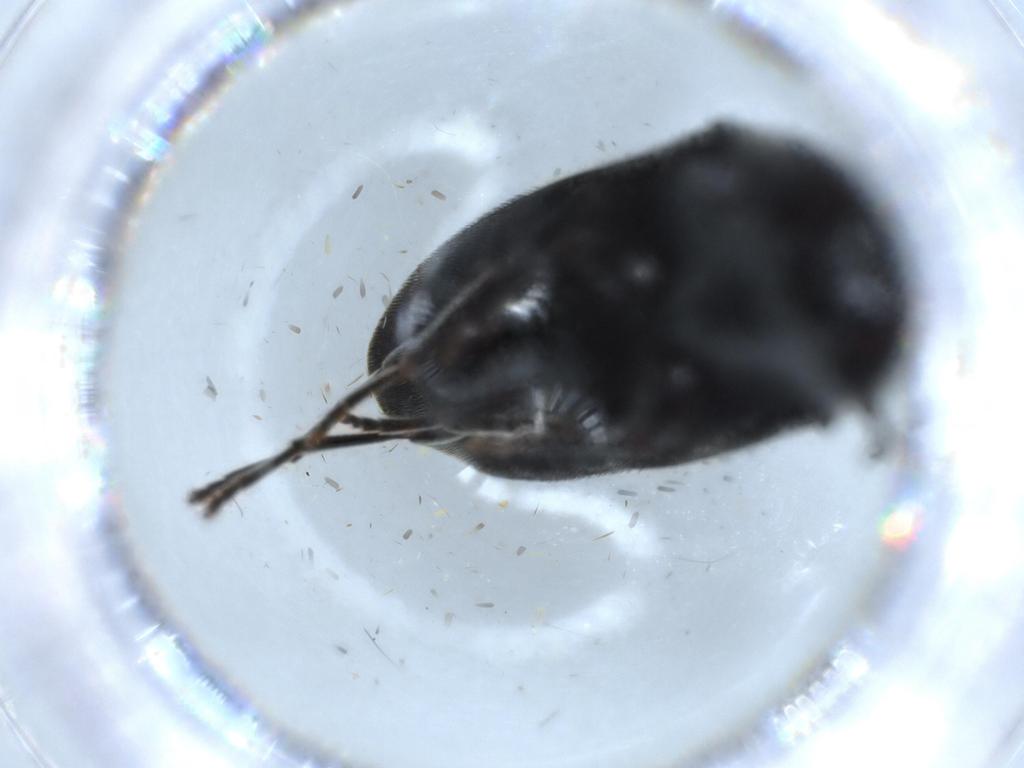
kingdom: Animalia
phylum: Arthropoda
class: Insecta
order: Coleoptera
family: Eucnemidae
